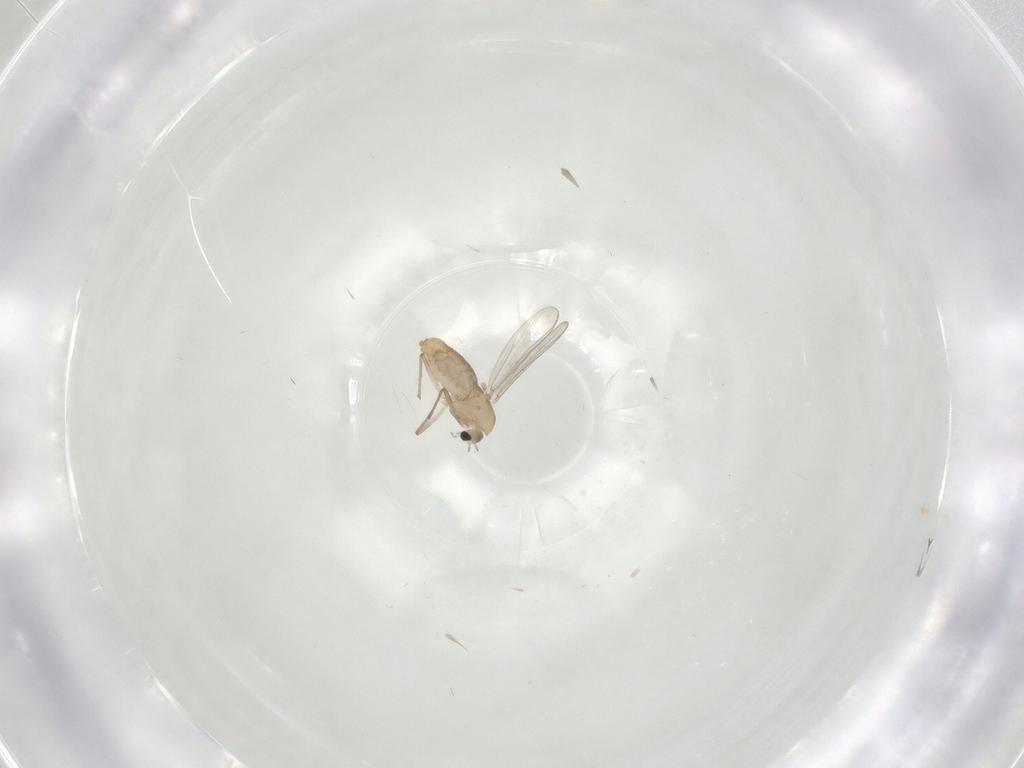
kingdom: Animalia
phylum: Arthropoda
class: Insecta
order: Diptera
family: Chironomidae
